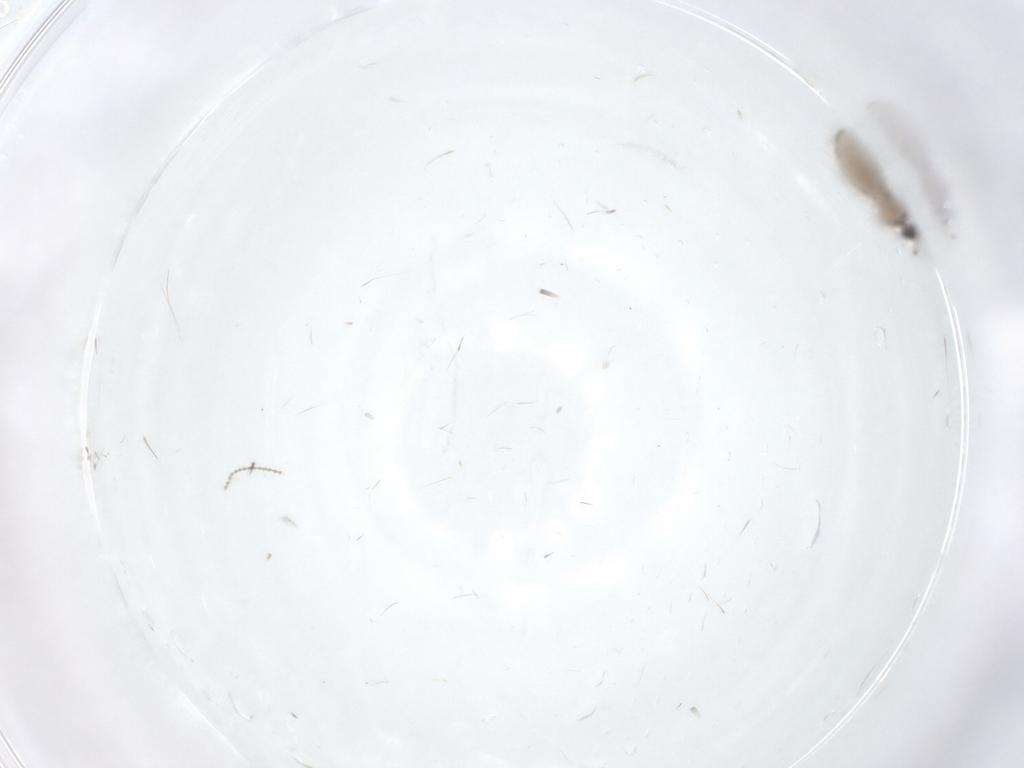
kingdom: Animalia
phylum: Arthropoda
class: Insecta
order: Diptera
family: Cecidomyiidae
